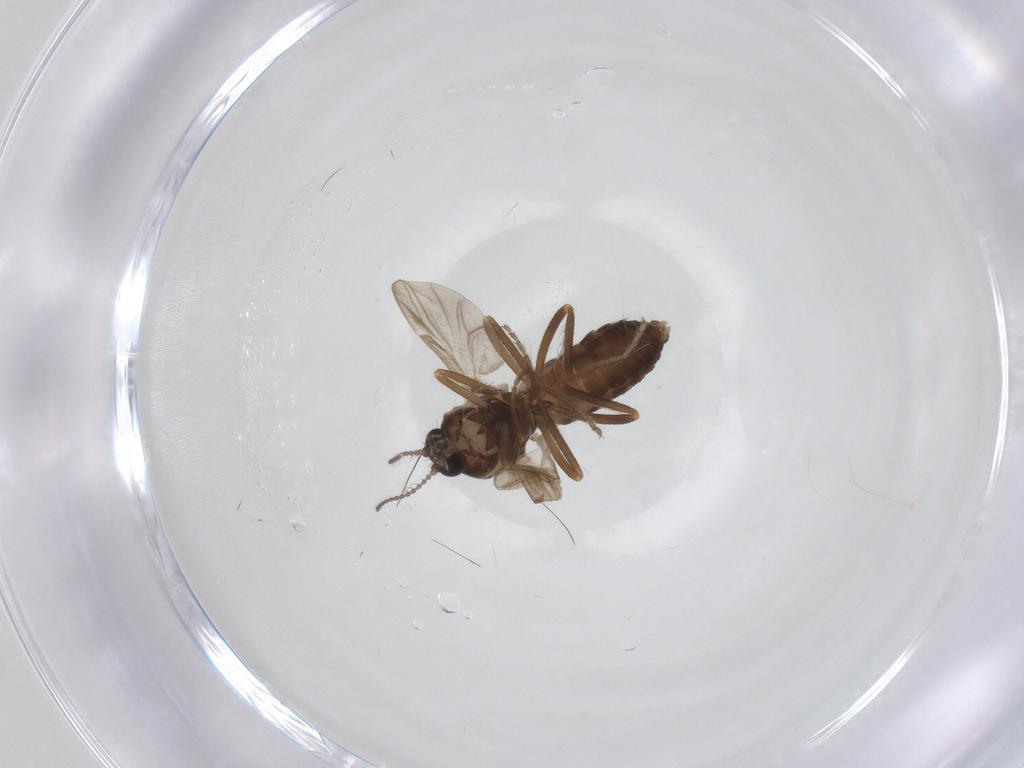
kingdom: Animalia
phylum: Arthropoda
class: Insecta
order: Diptera
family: Ceratopogonidae
